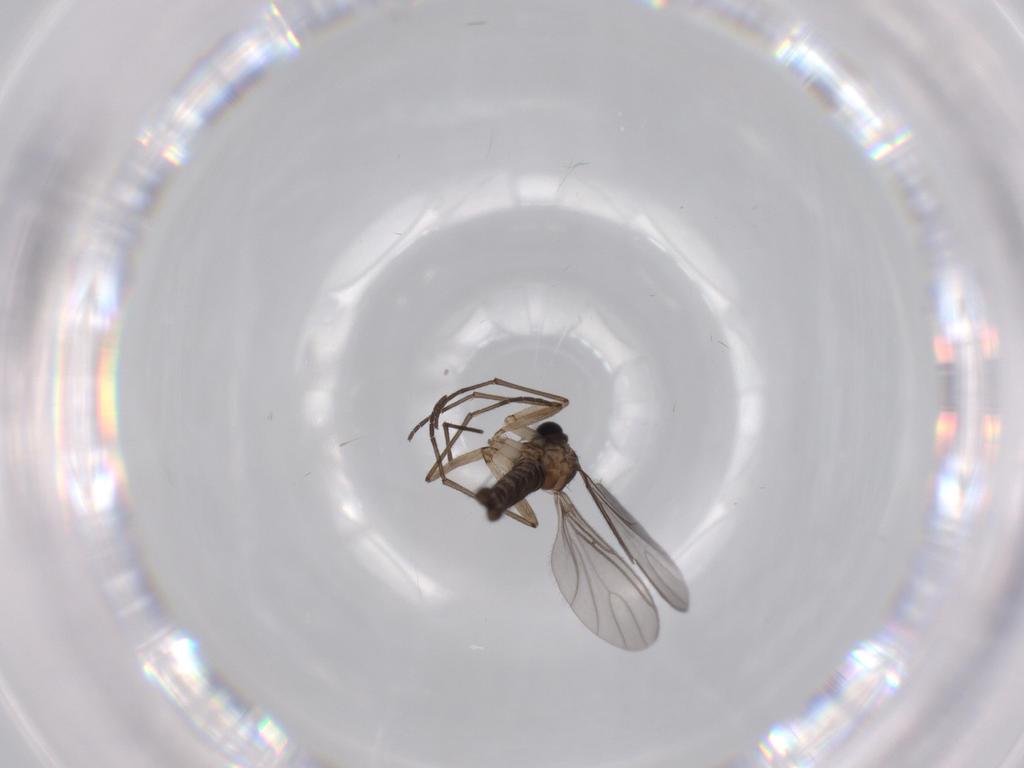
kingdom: Animalia
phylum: Arthropoda
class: Insecta
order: Diptera
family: Sciaridae
